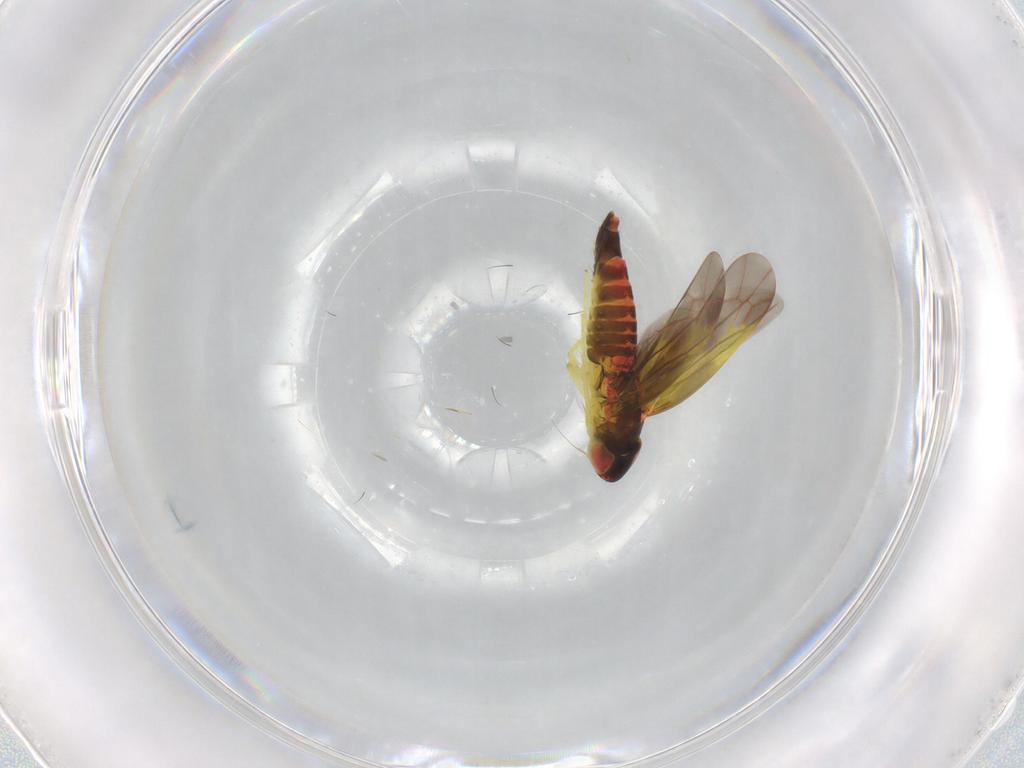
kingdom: Animalia
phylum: Arthropoda
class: Insecta
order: Hemiptera
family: Cicadellidae
